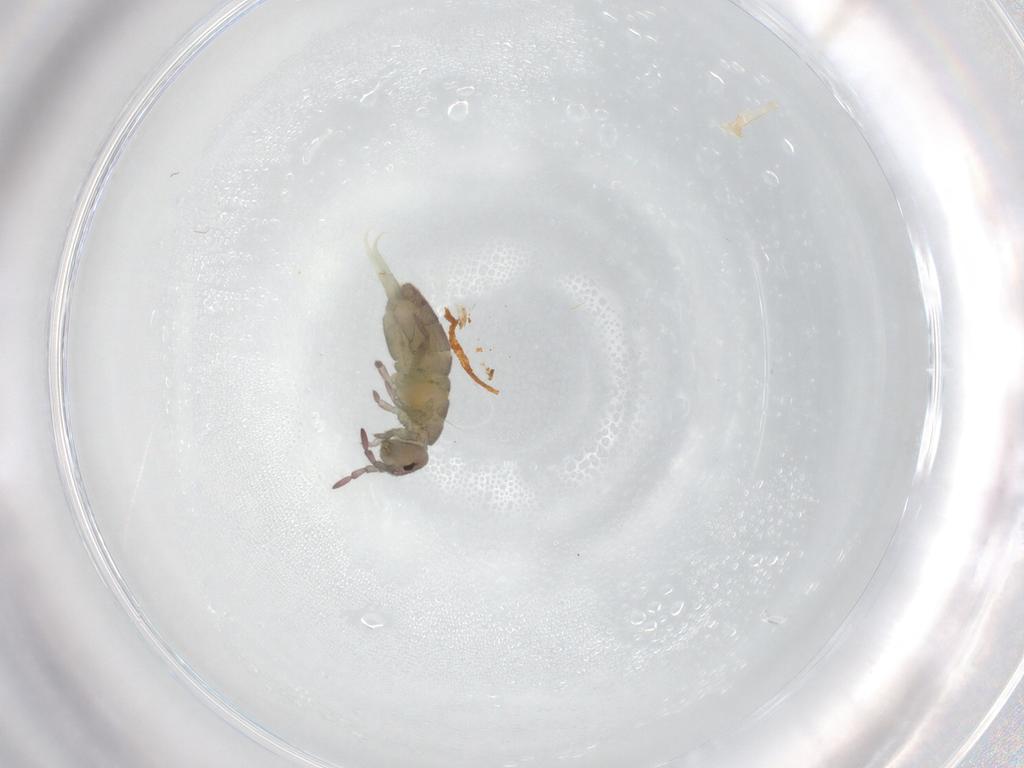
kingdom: Animalia
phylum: Arthropoda
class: Collembola
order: Entomobryomorpha
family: Isotomidae
